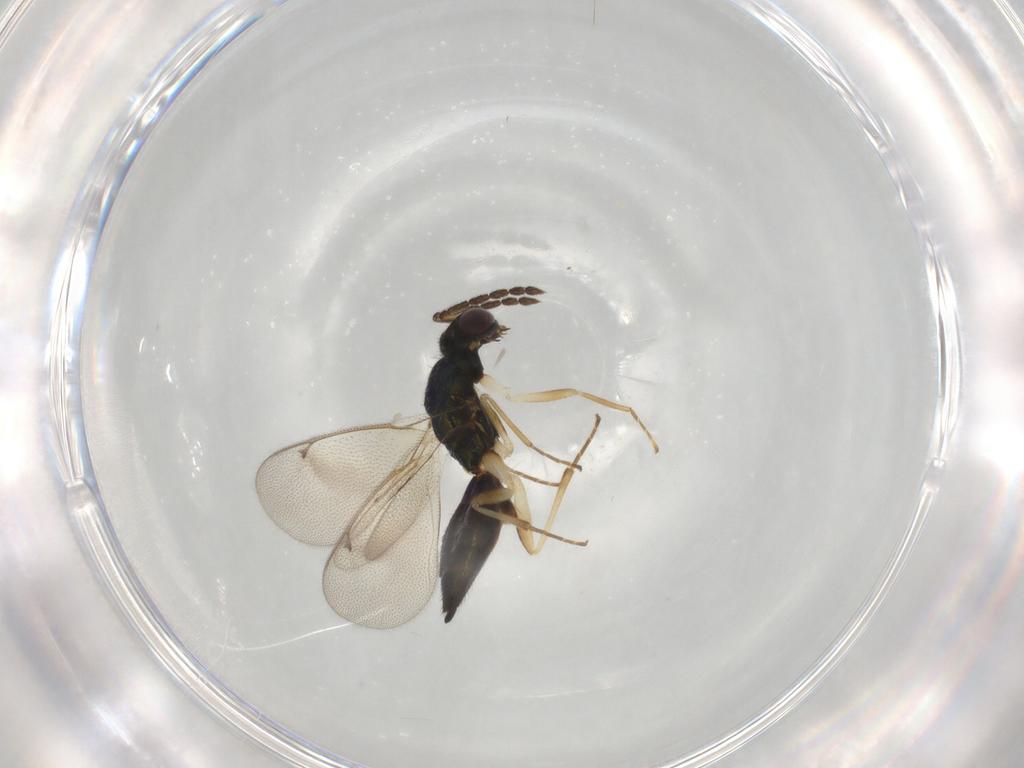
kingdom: Animalia
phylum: Arthropoda
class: Insecta
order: Hymenoptera
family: Eulophidae
